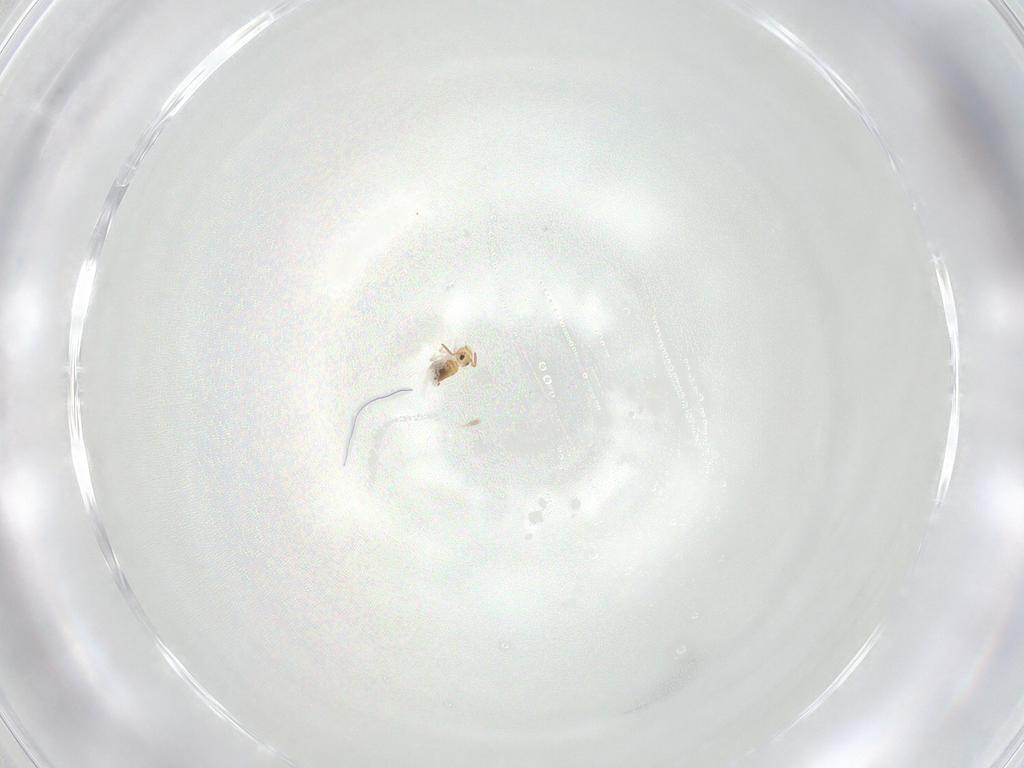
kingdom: Animalia
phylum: Arthropoda
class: Collembola
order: Symphypleona
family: Bourletiellidae
